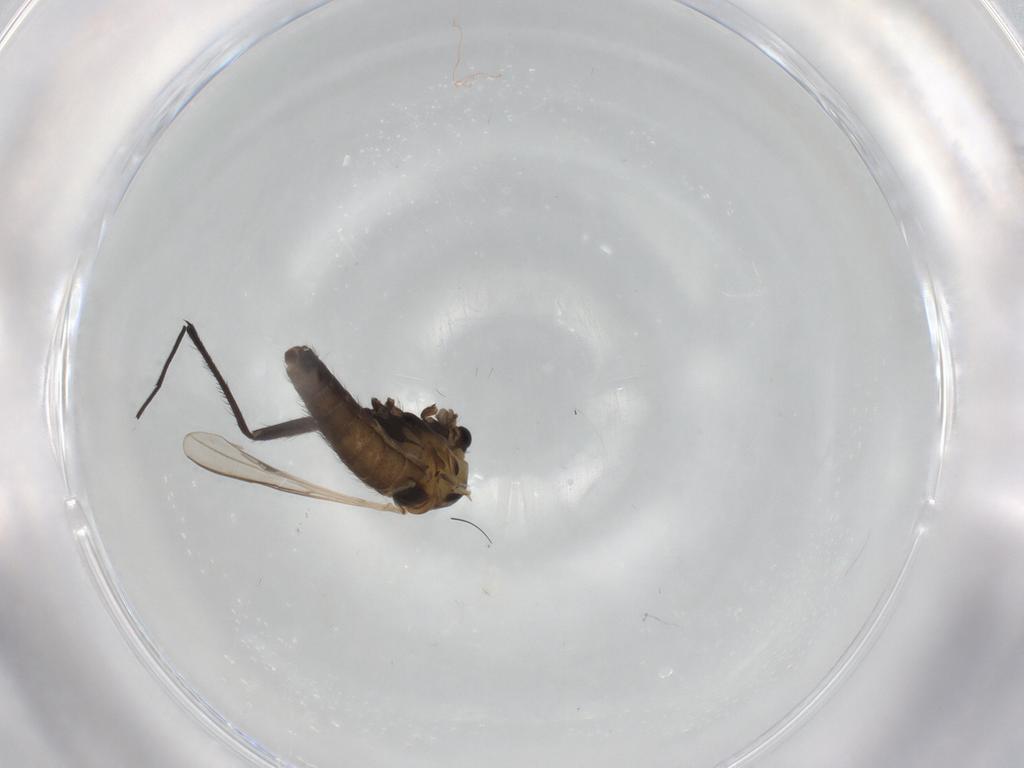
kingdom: Animalia
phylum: Arthropoda
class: Insecta
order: Diptera
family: Chironomidae
